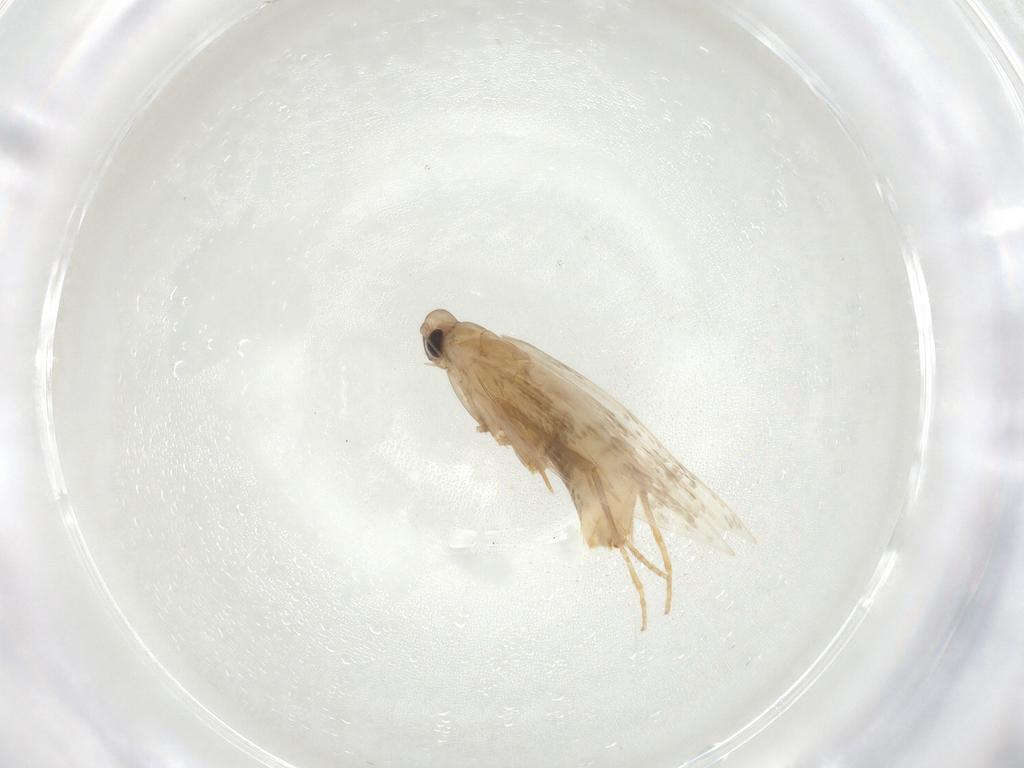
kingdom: Animalia
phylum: Arthropoda
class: Insecta
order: Lepidoptera
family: Tischeriidae
